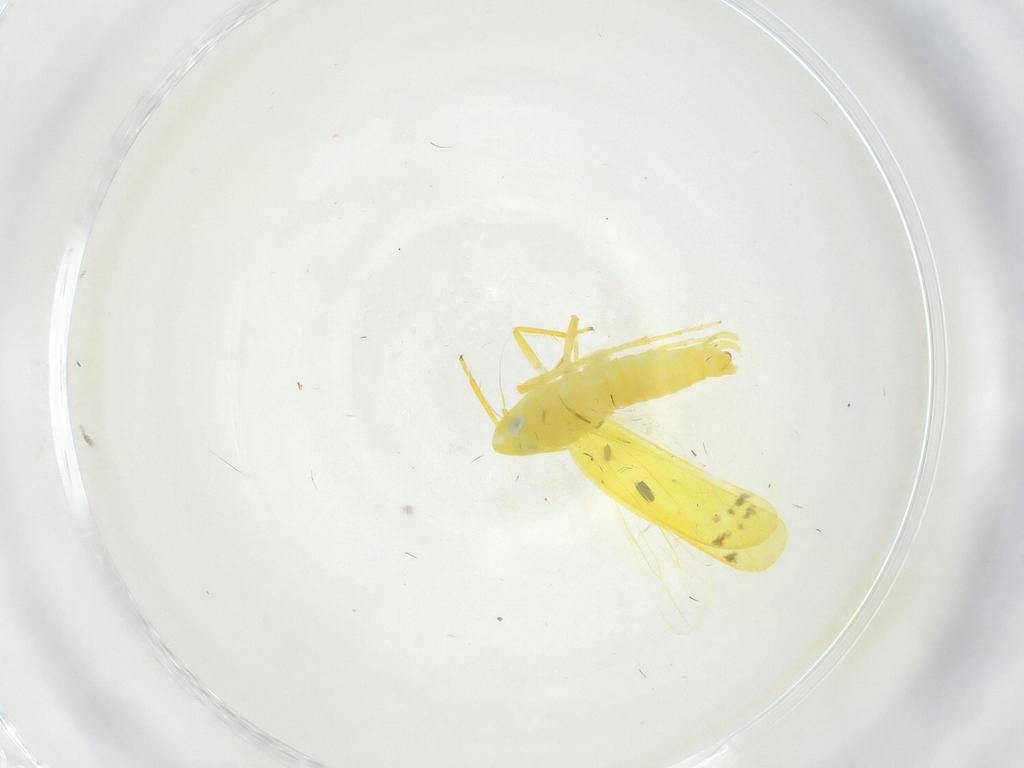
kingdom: Animalia
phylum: Arthropoda
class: Insecta
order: Hemiptera
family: Cicadellidae
